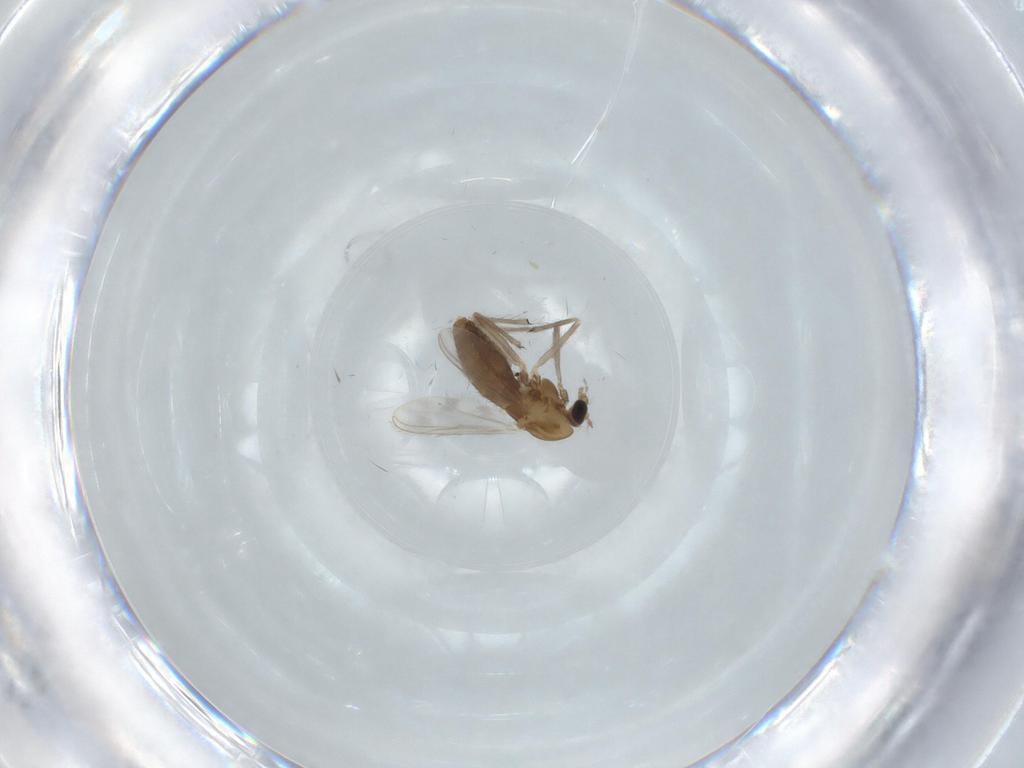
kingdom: Animalia
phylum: Arthropoda
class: Insecta
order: Diptera
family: Chironomidae
